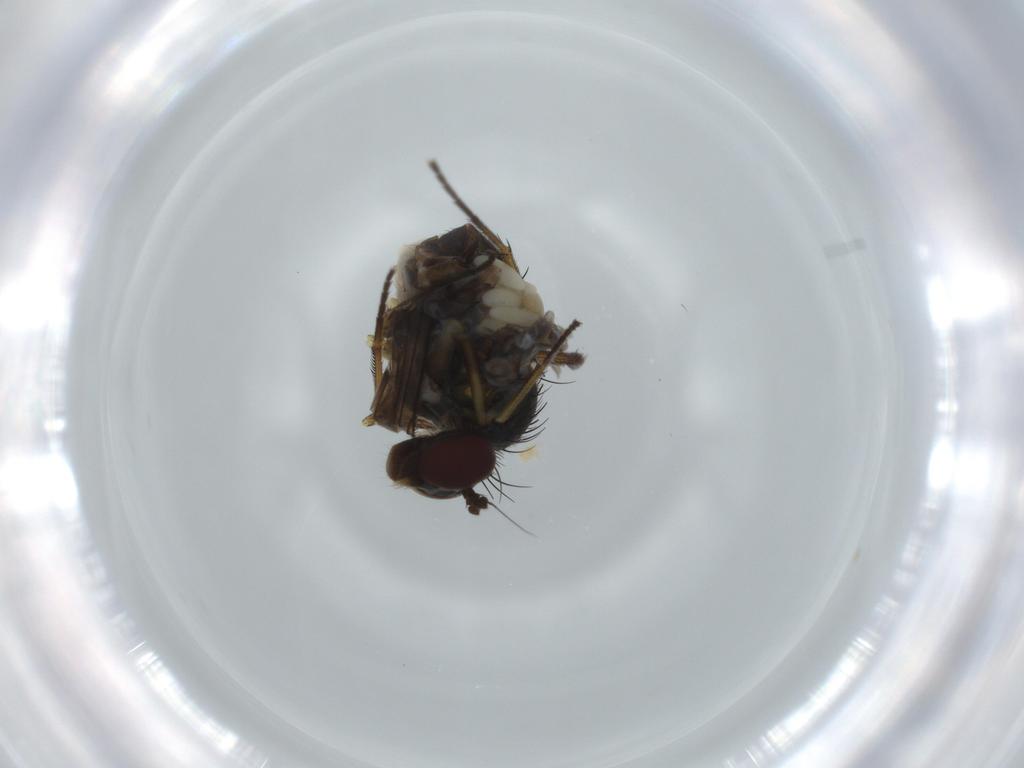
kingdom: Animalia
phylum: Arthropoda
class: Insecta
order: Diptera
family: Dolichopodidae
